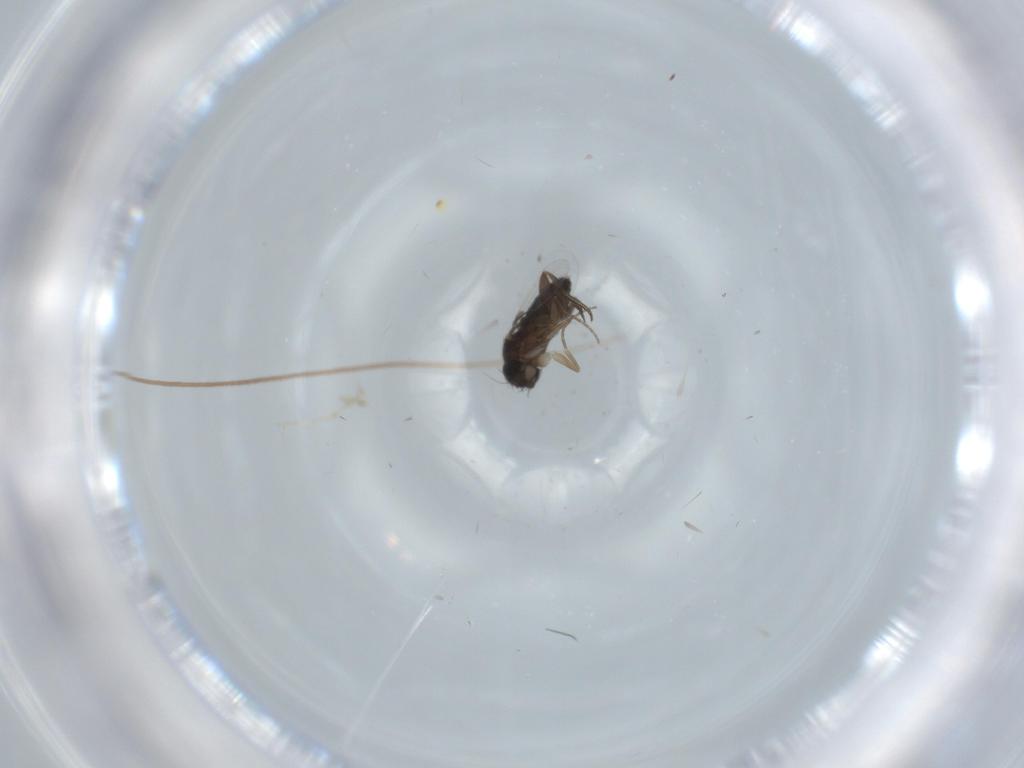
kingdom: Animalia
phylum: Arthropoda
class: Insecta
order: Diptera
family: Phoridae
